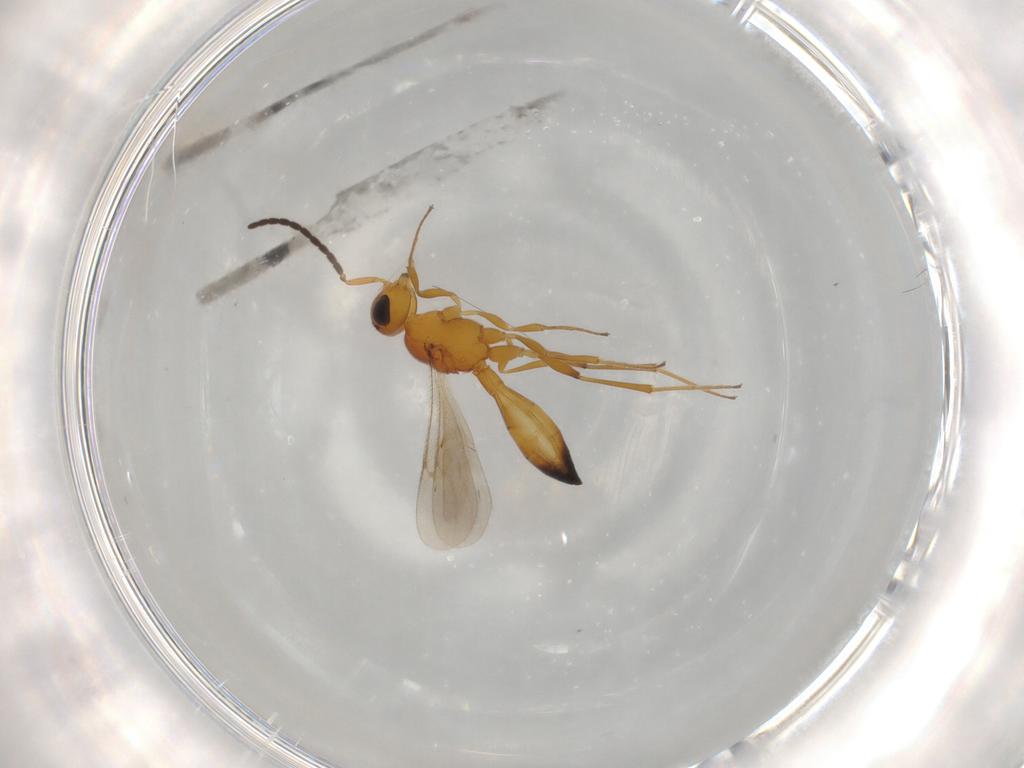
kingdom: Animalia
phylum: Arthropoda
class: Insecta
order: Hymenoptera
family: Scelionidae
